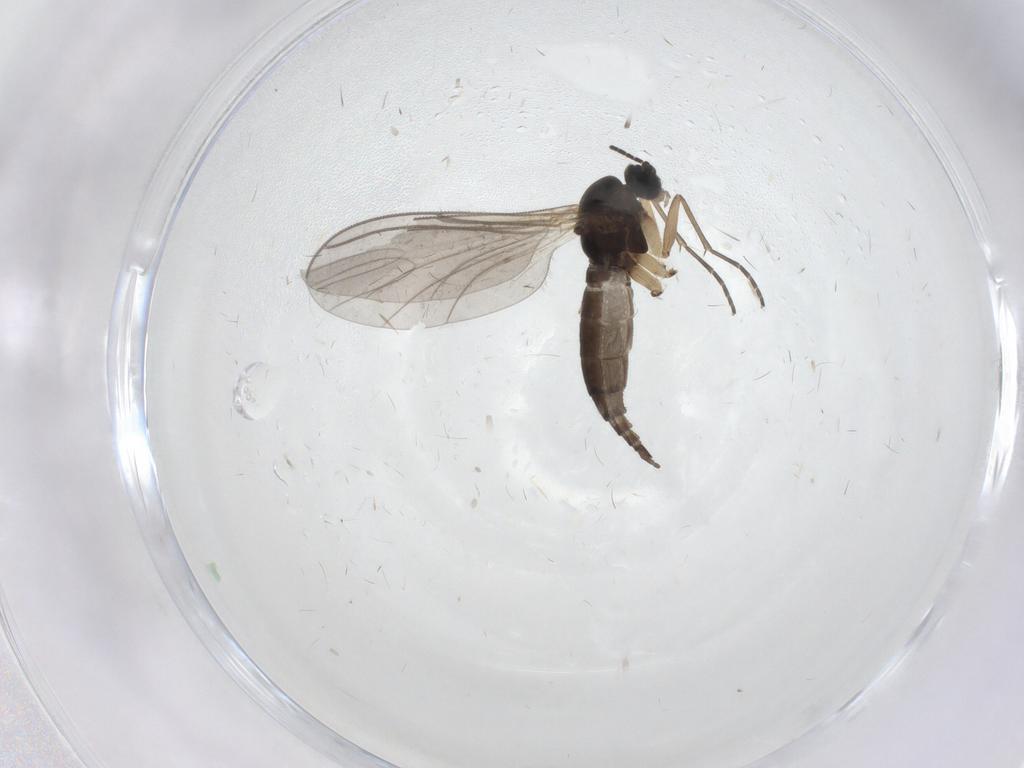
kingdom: Animalia
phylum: Arthropoda
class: Insecta
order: Diptera
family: Sciaridae
